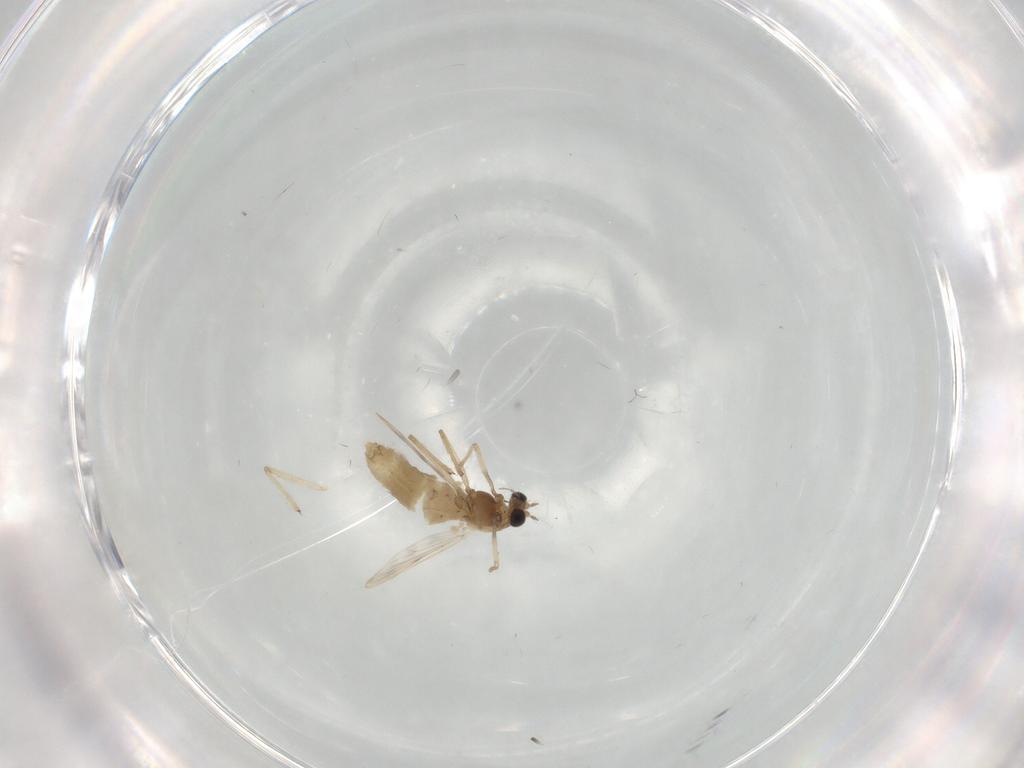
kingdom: Animalia
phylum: Arthropoda
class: Insecta
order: Diptera
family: Chironomidae
